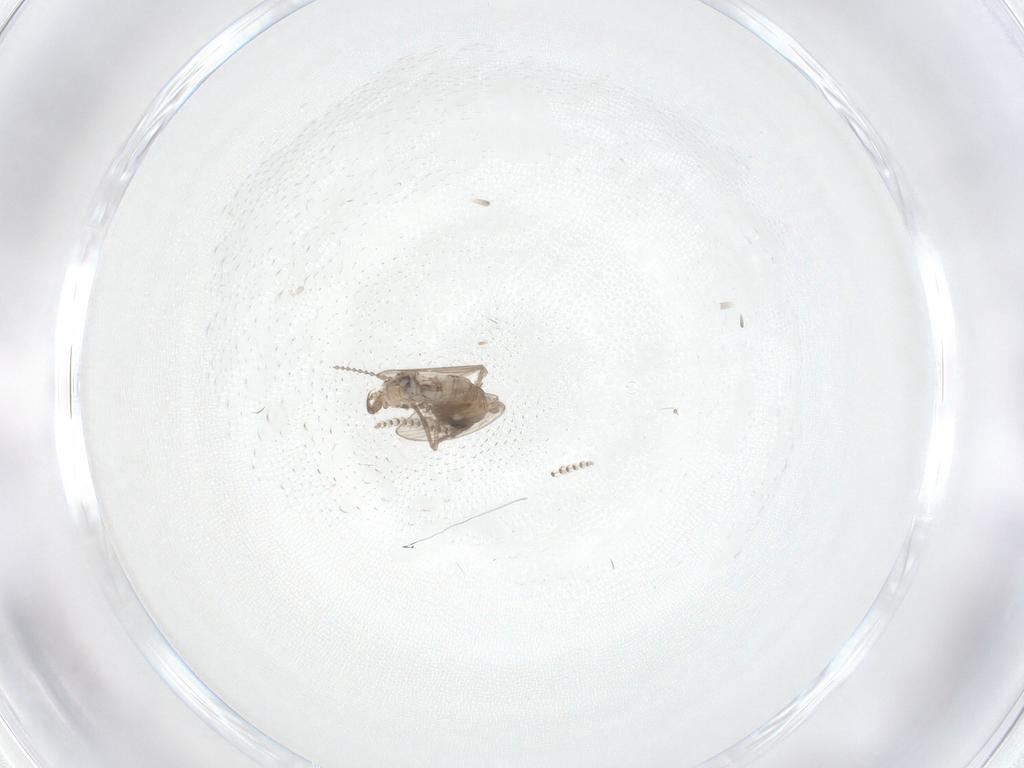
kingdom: Animalia
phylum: Arthropoda
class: Insecta
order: Diptera
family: Psychodidae
